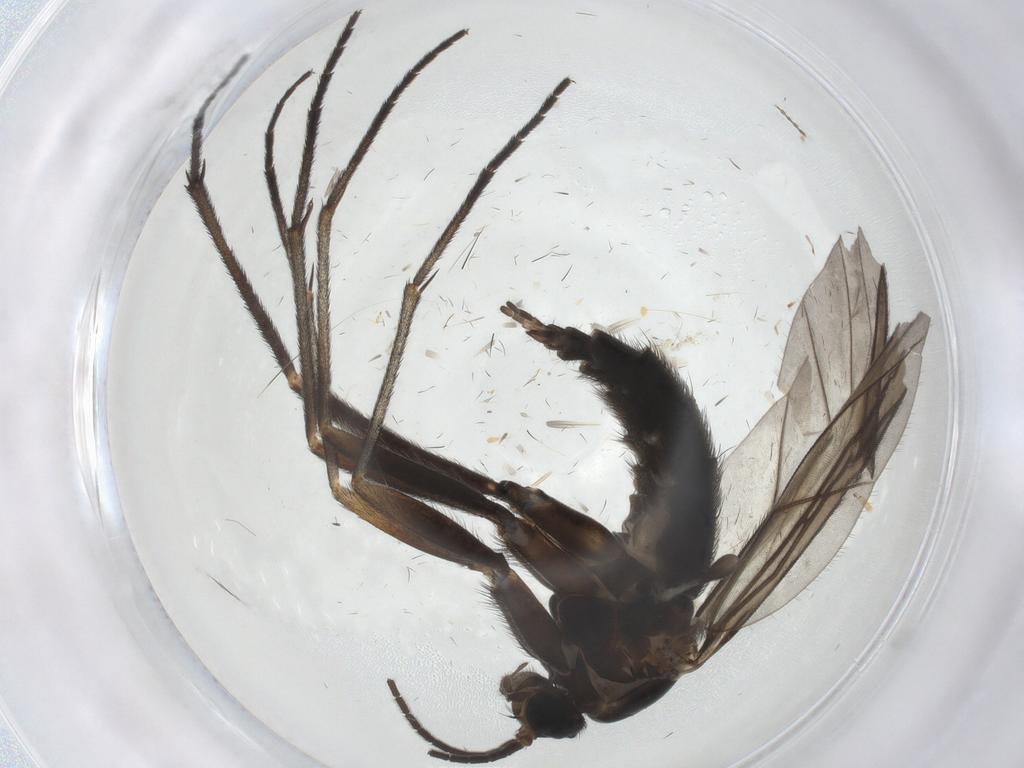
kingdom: Animalia
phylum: Arthropoda
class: Insecta
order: Diptera
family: Sciaridae
